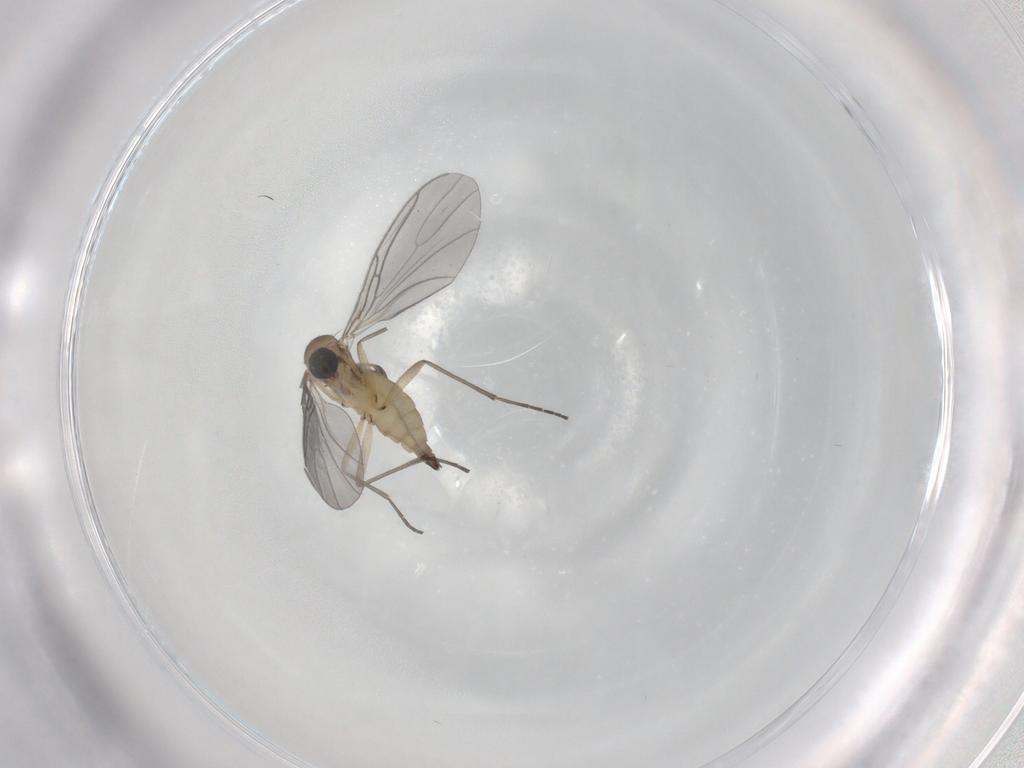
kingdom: Animalia
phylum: Arthropoda
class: Insecta
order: Diptera
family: Sciaridae
